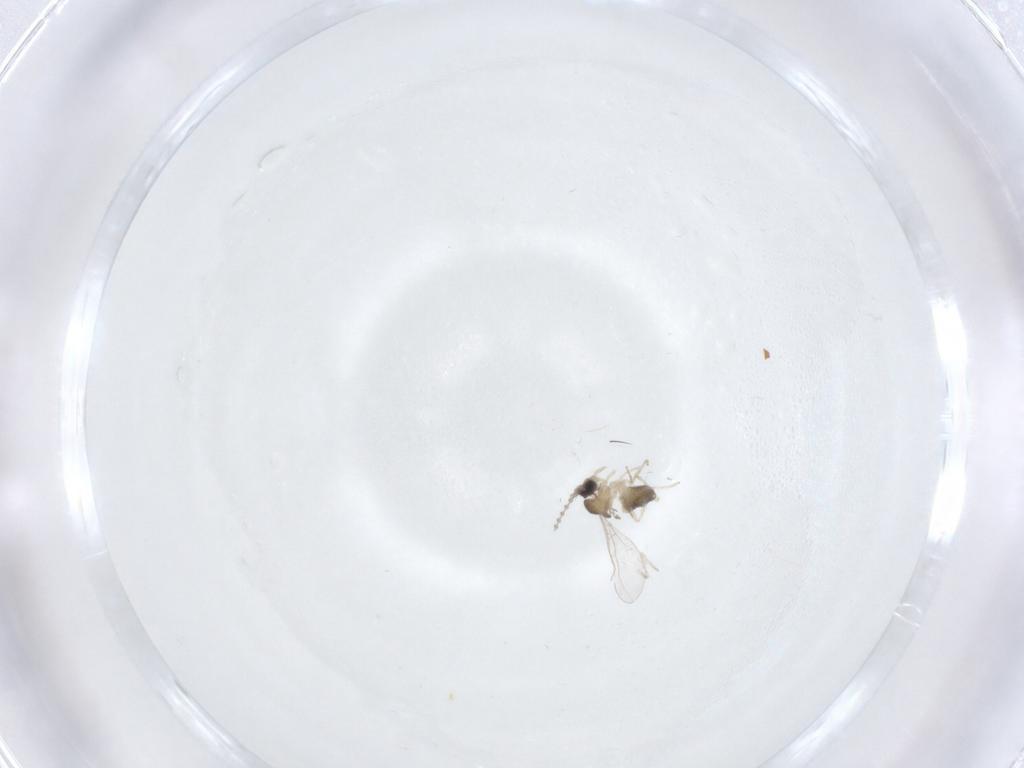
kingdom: Animalia
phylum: Arthropoda
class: Insecta
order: Diptera
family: Cecidomyiidae
